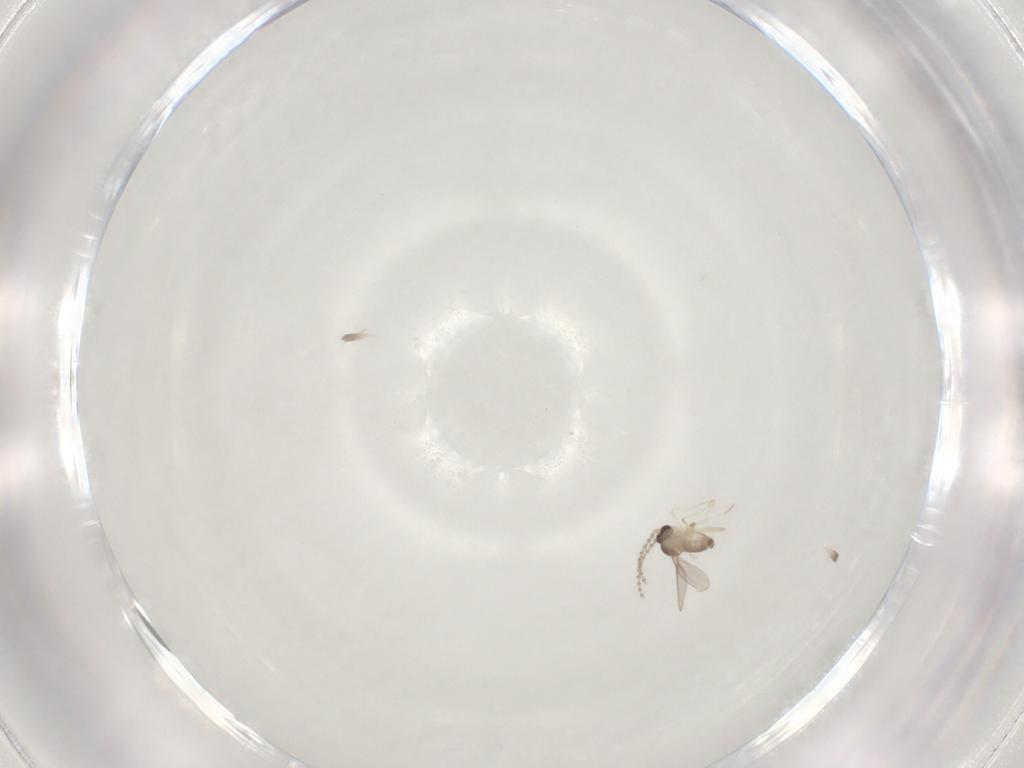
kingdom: Animalia
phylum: Arthropoda
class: Insecta
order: Diptera
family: Cecidomyiidae
